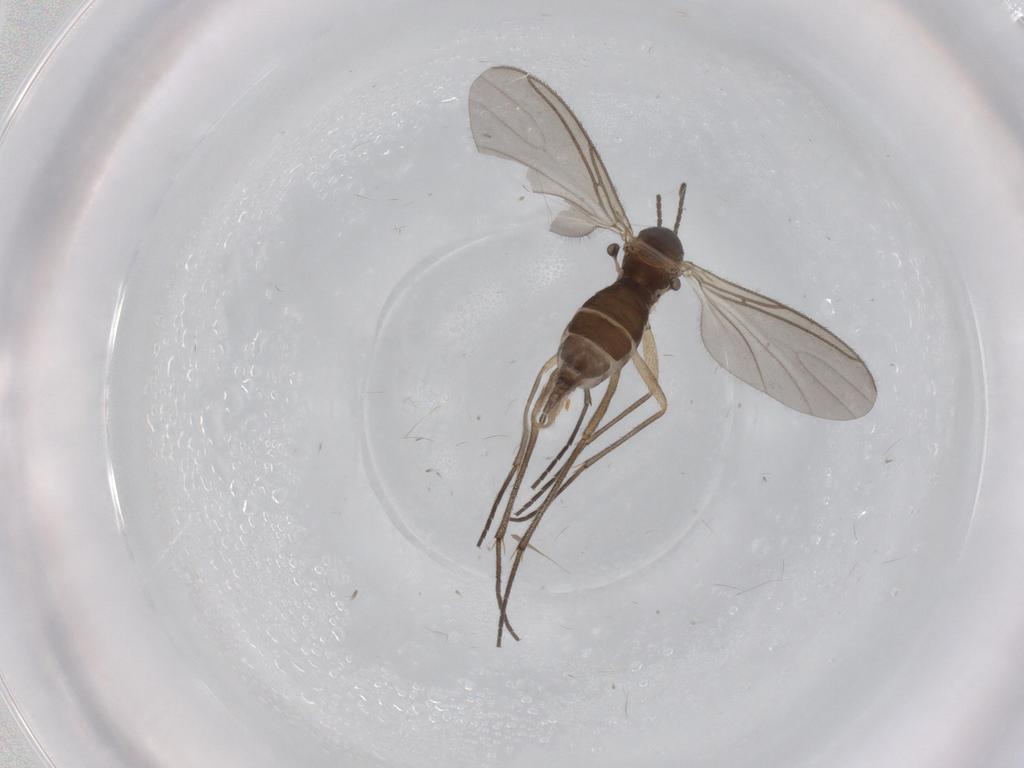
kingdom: Animalia
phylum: Arthropoda
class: Insecta
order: Diptera
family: Sciaridae
